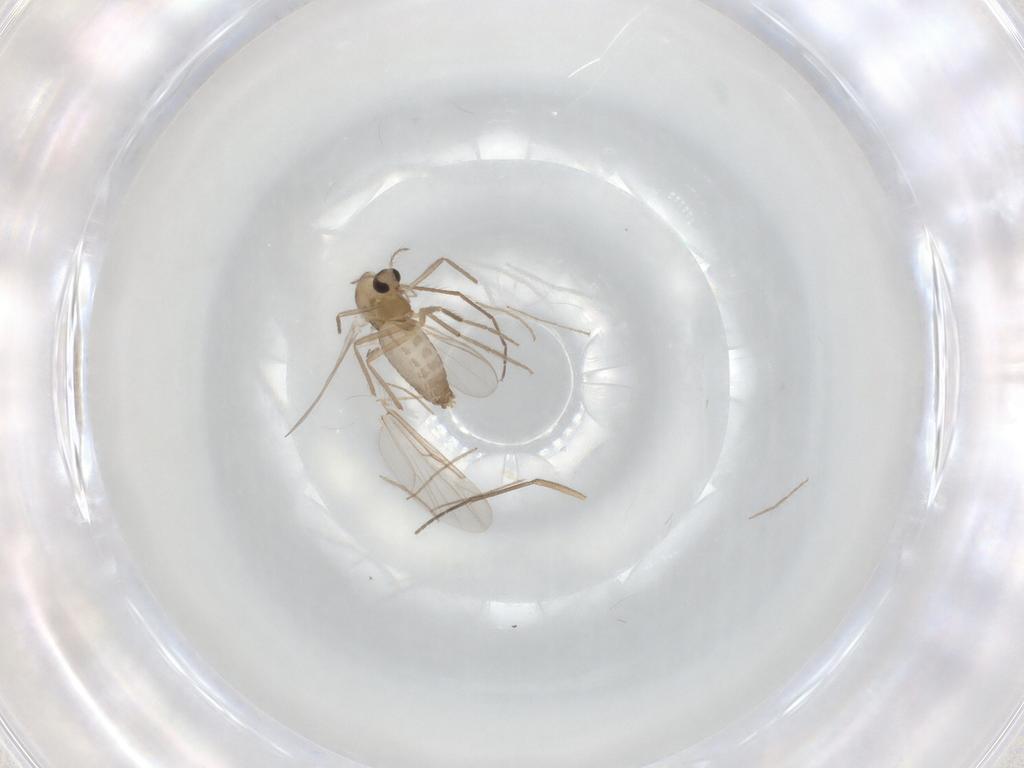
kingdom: Animalia
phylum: Arthropoda
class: Insecta
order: Diptera
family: Chironomidae
